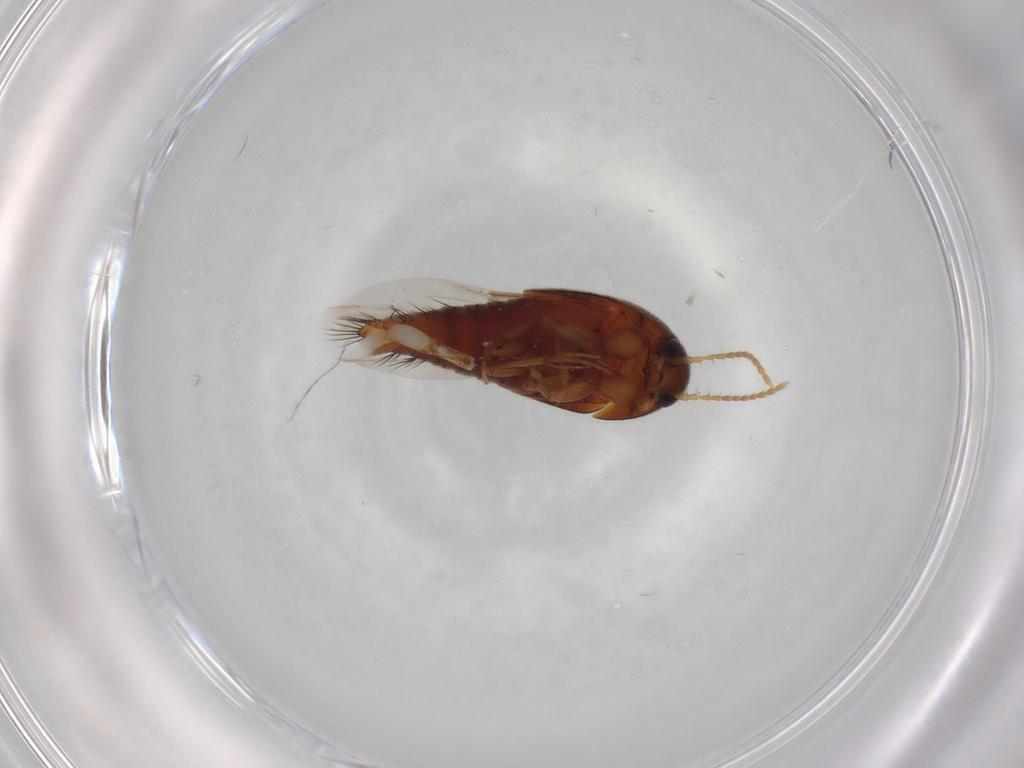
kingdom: Animalia
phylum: Arthropoda
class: Insecta
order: Coleoptera
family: Staphylinidae
